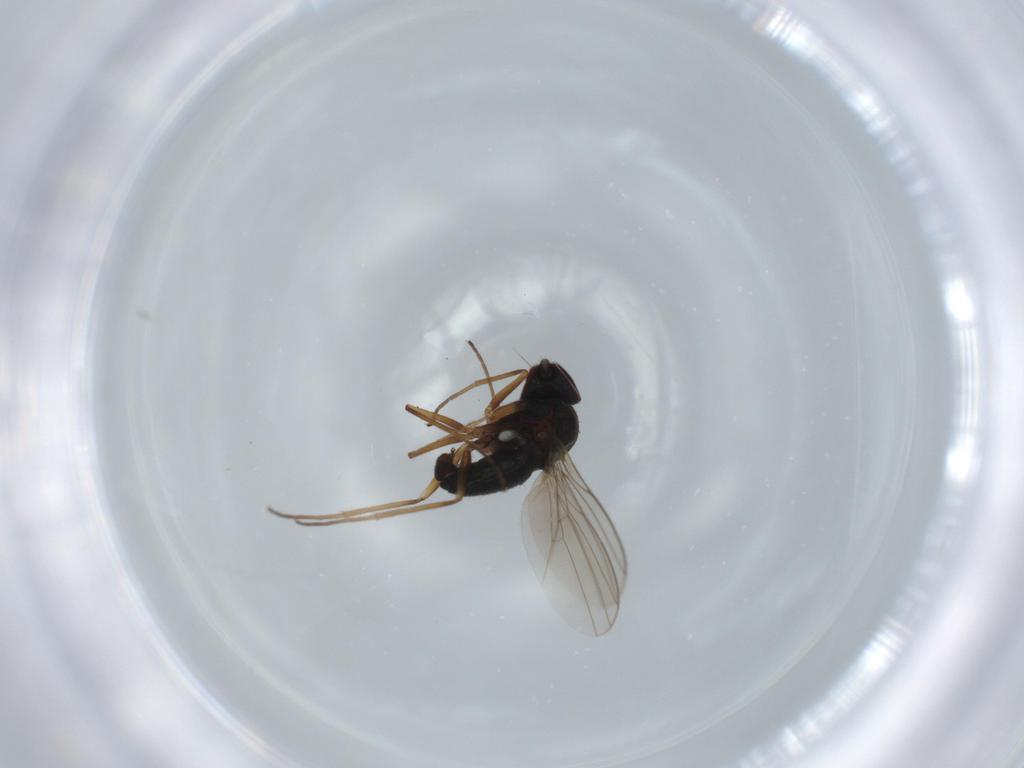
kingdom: Animalia
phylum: Arthropoda
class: Insecta
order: Diptera
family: Dolichopodidae
